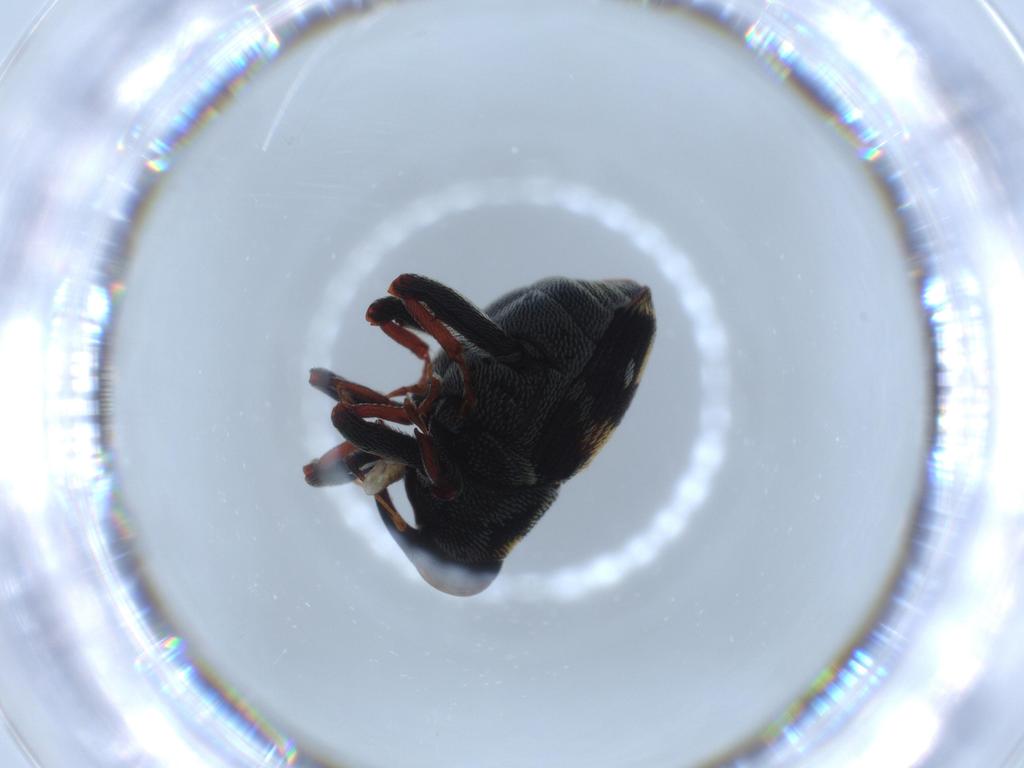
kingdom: Animalia
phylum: Arthropoda
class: Insecta
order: Coleoptera
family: Curculionidae
